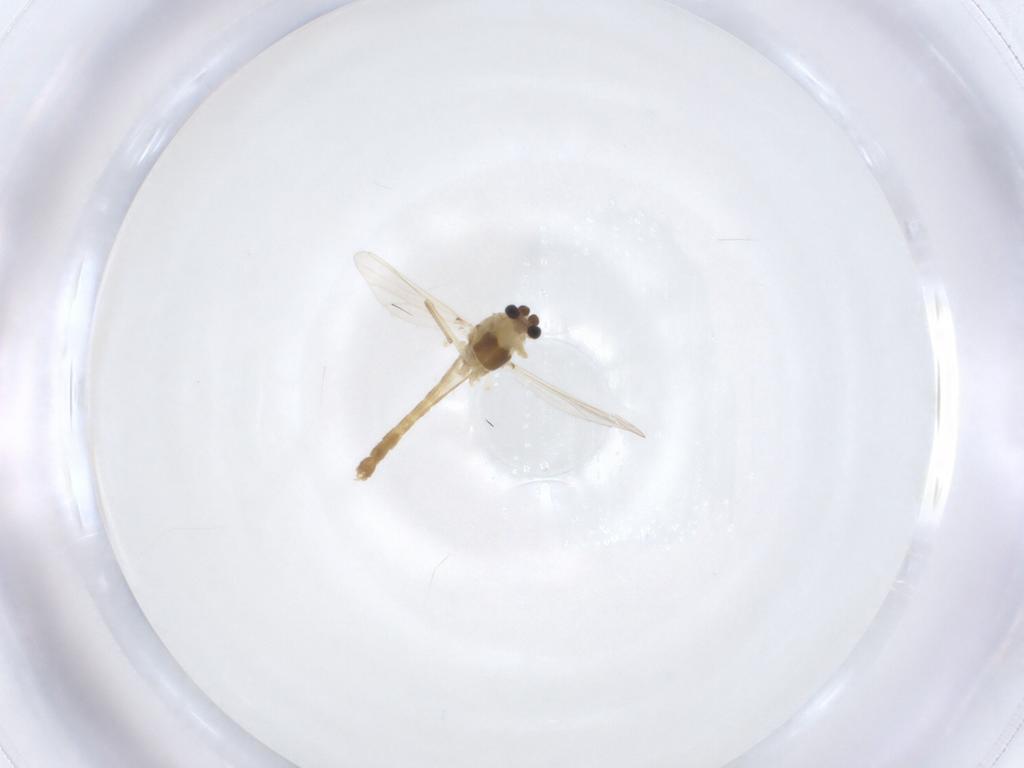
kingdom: Animalia
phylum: Arthropoda
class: Insecta
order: Diptera
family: Chironomidae
